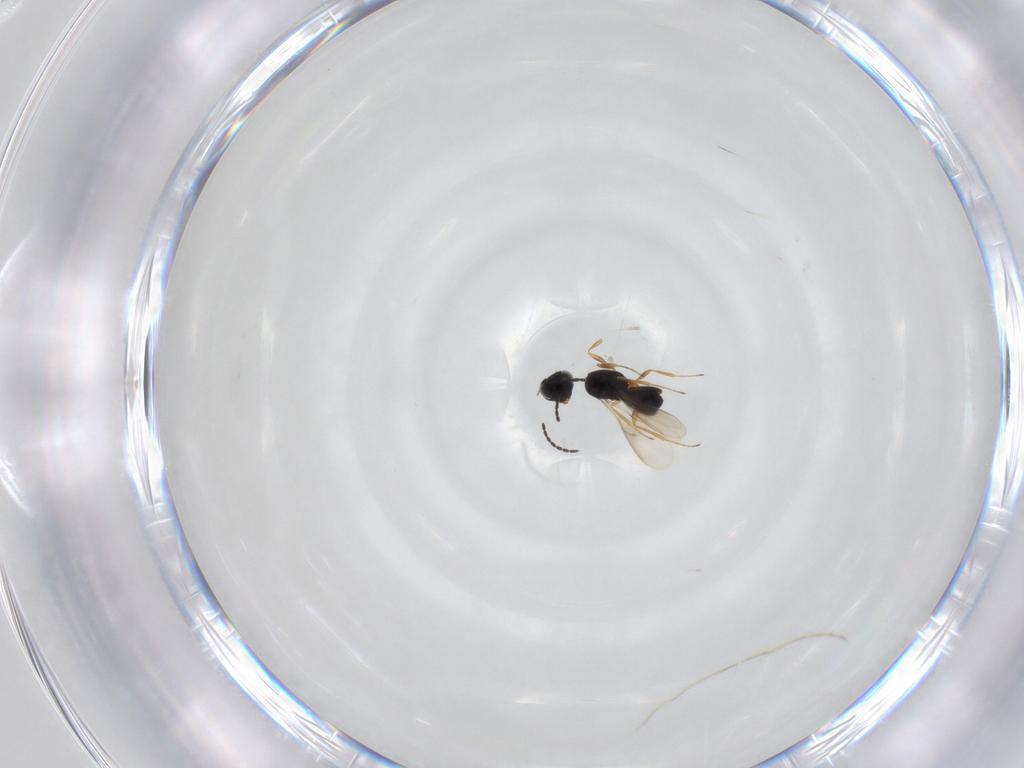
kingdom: Animalia
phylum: Arthropoda
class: Insecta
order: Hymenoptera
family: Scelionidae
